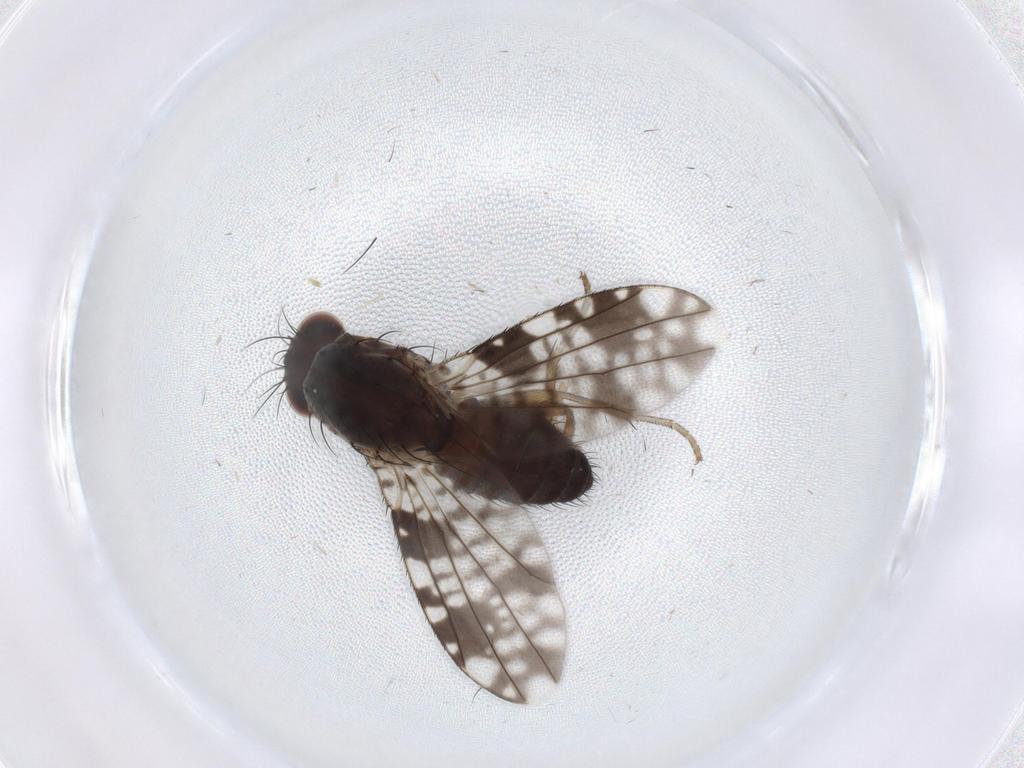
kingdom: Animalia
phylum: Arthropoda
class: Insecta
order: Diptera
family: Tephritidae
